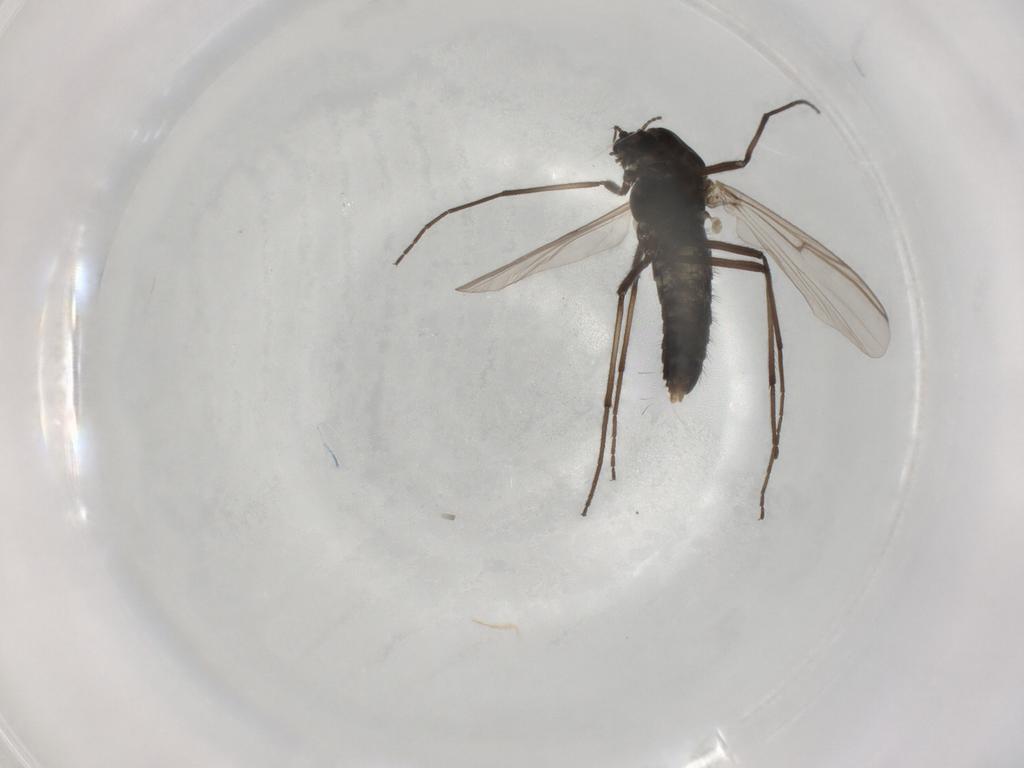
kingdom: Animalia
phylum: Arthropoda
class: Insecta
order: Diptera
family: Chironomidae
